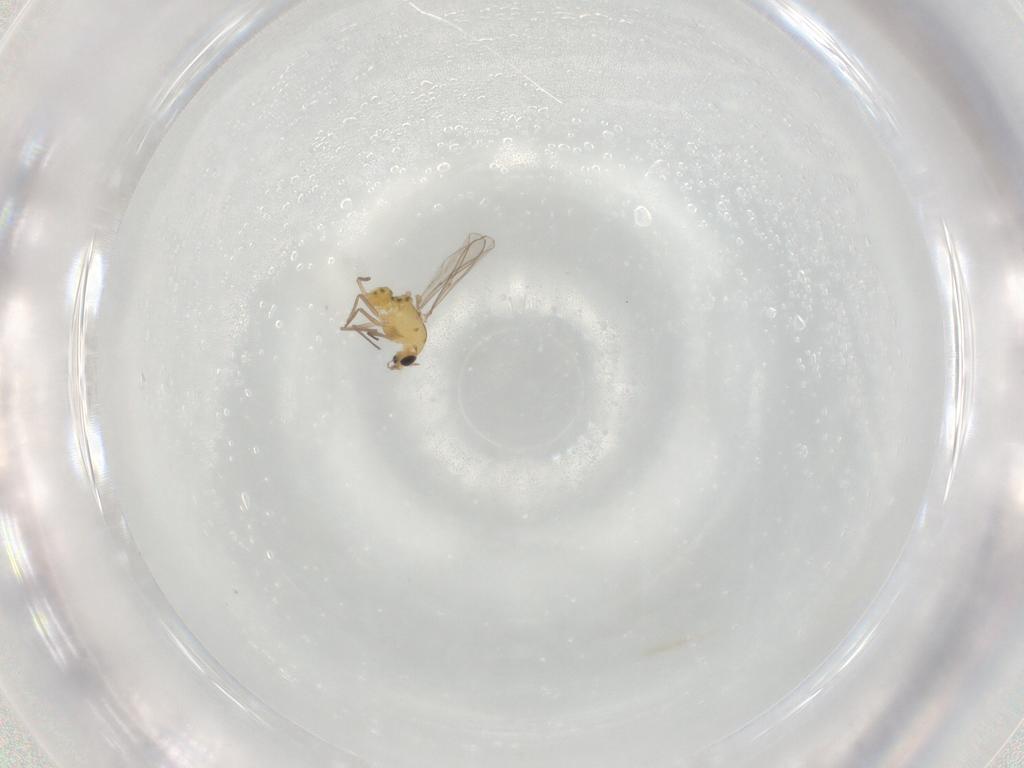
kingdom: Animalia
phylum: Arthropoda
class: Insecta
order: Diptera
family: Chironomidae
